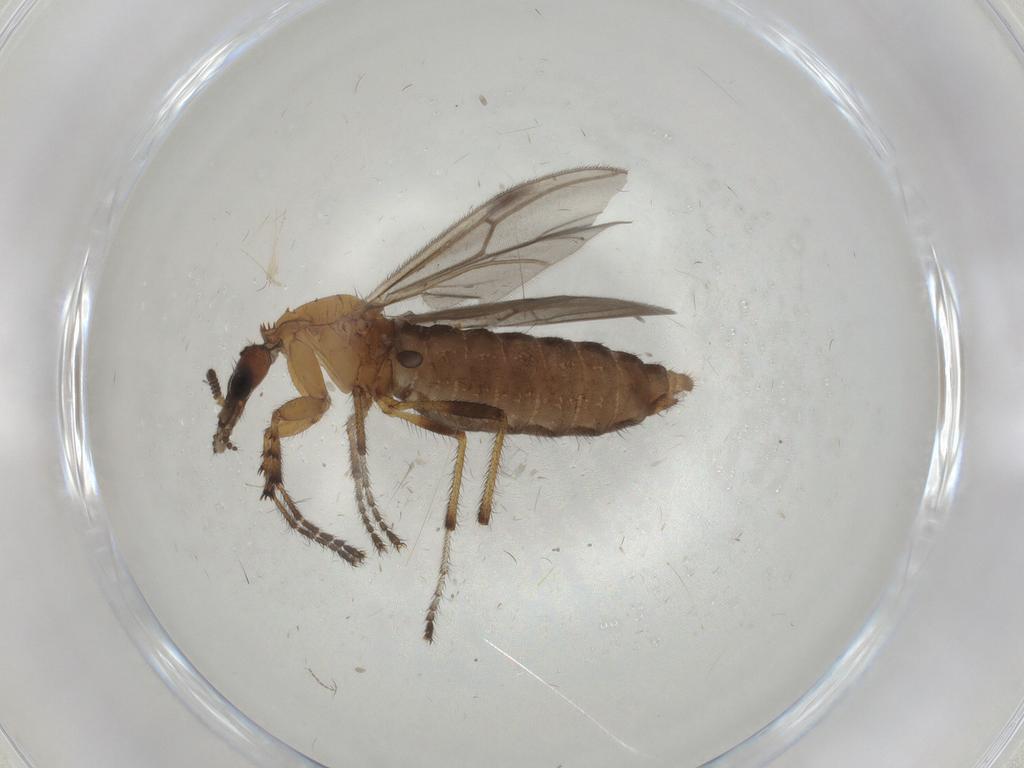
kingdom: Animalia
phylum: Arthropoda
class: Insecta
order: Diptera
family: Bibionidae
